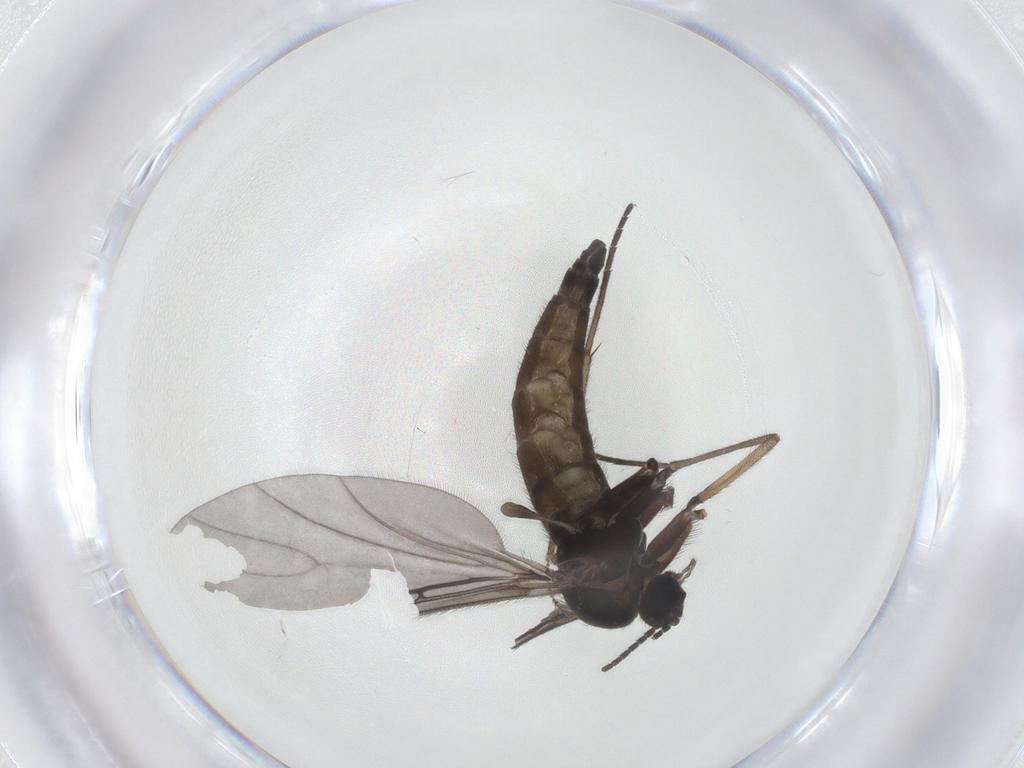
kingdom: Animalia
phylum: Arthropoda
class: Insecta
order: Diptera
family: Sciaridae
